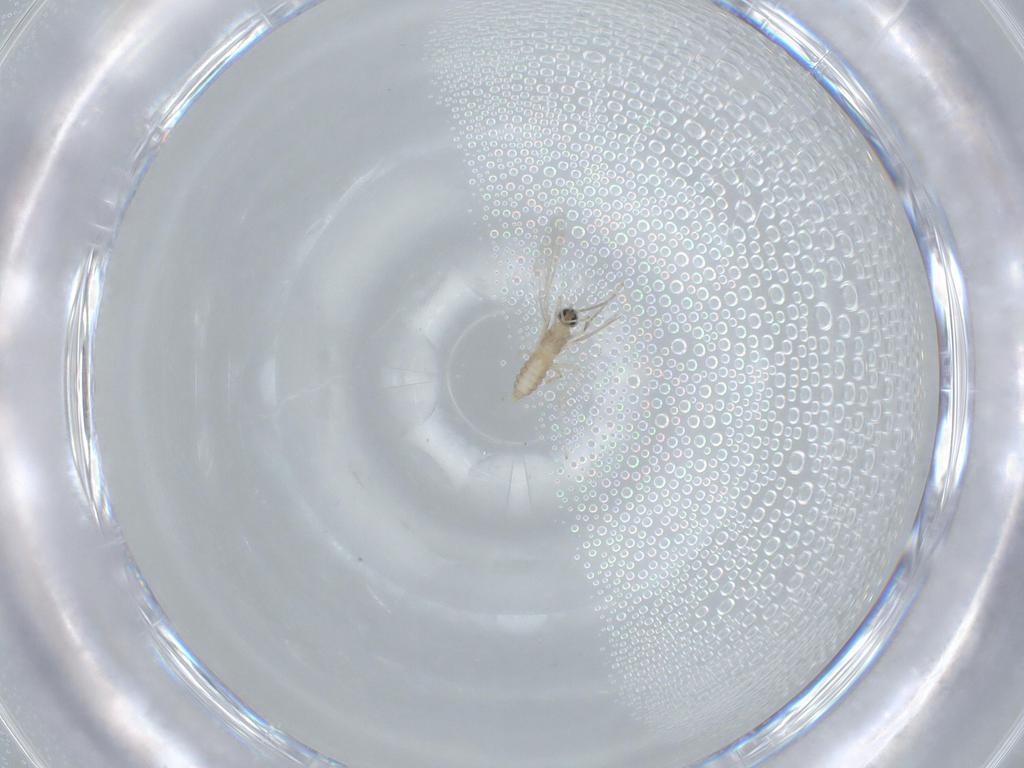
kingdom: Animalia
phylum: Arthropoda
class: Insecta
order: Diptera
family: Cecidomyiidae
